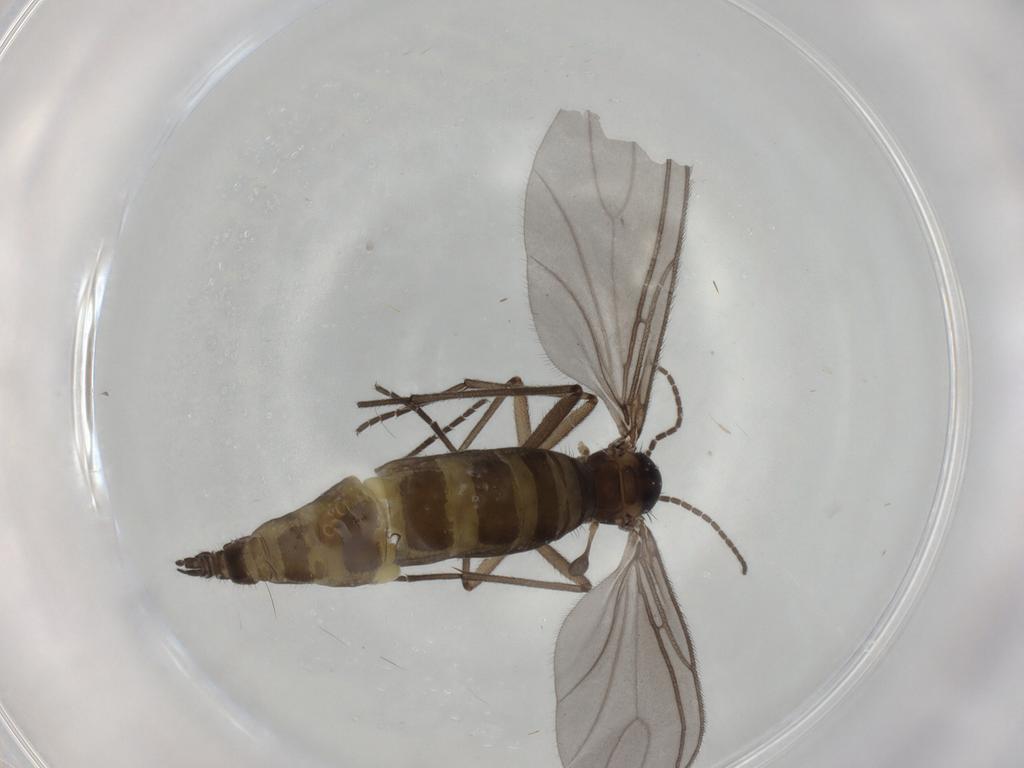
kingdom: Animalia
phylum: Arthropoda
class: Insecta
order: Diptera
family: Sciaridae
